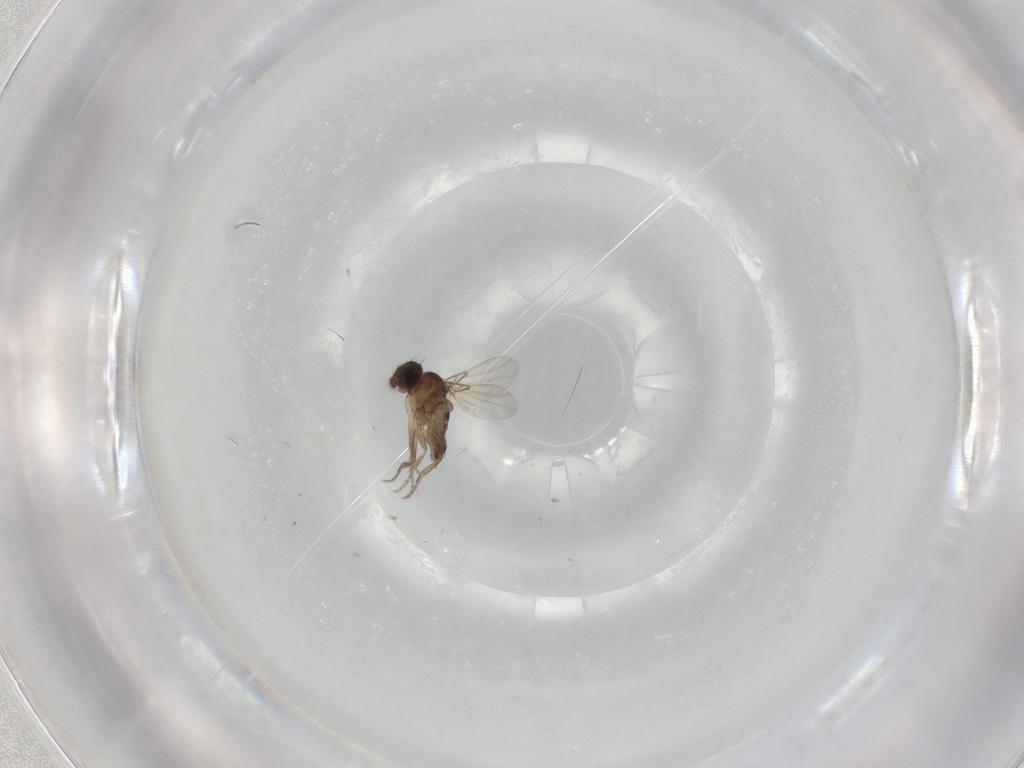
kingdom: Animalia
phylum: Arthropoda
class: Insecta
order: Diptera
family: Phoridae
